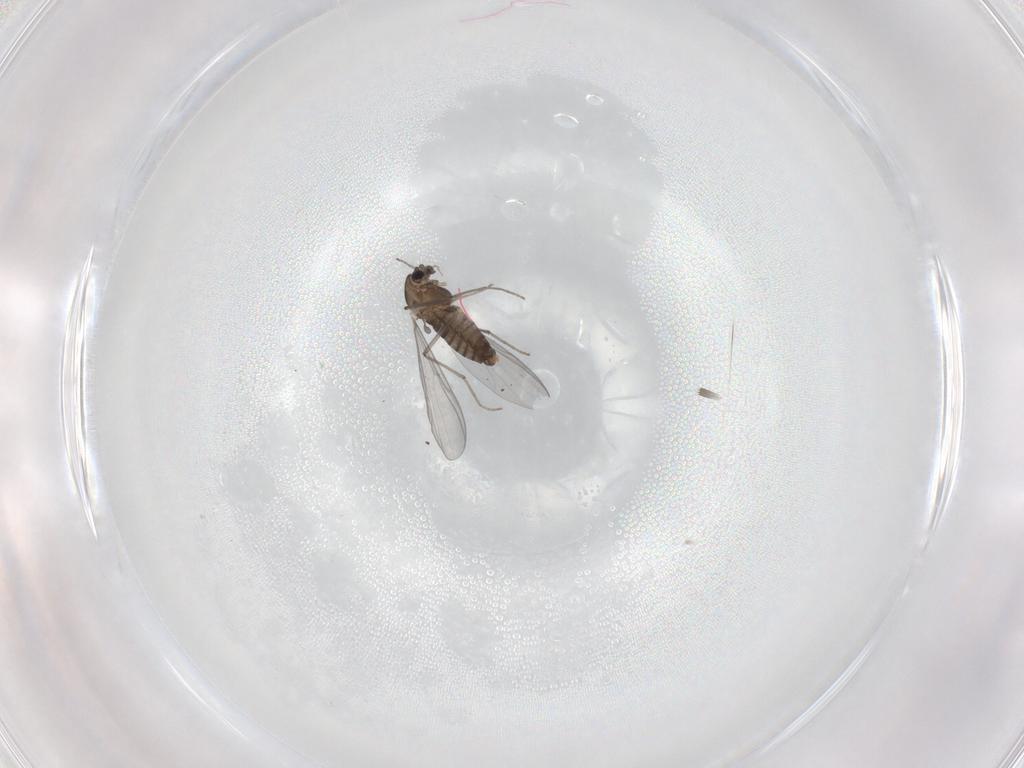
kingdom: Animalia
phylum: Arthropoda
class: Insecta
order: Diptera
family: Chironomidae
